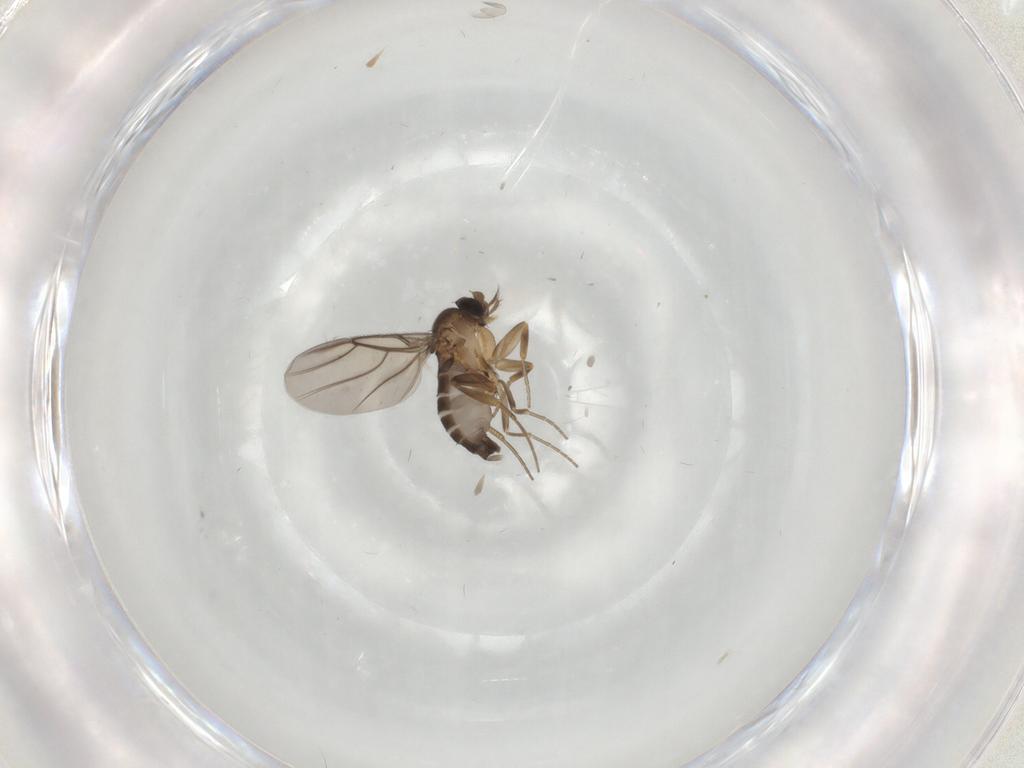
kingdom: Animalia
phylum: Arthropoda
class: Insecta
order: Diptera
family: Phoridae
